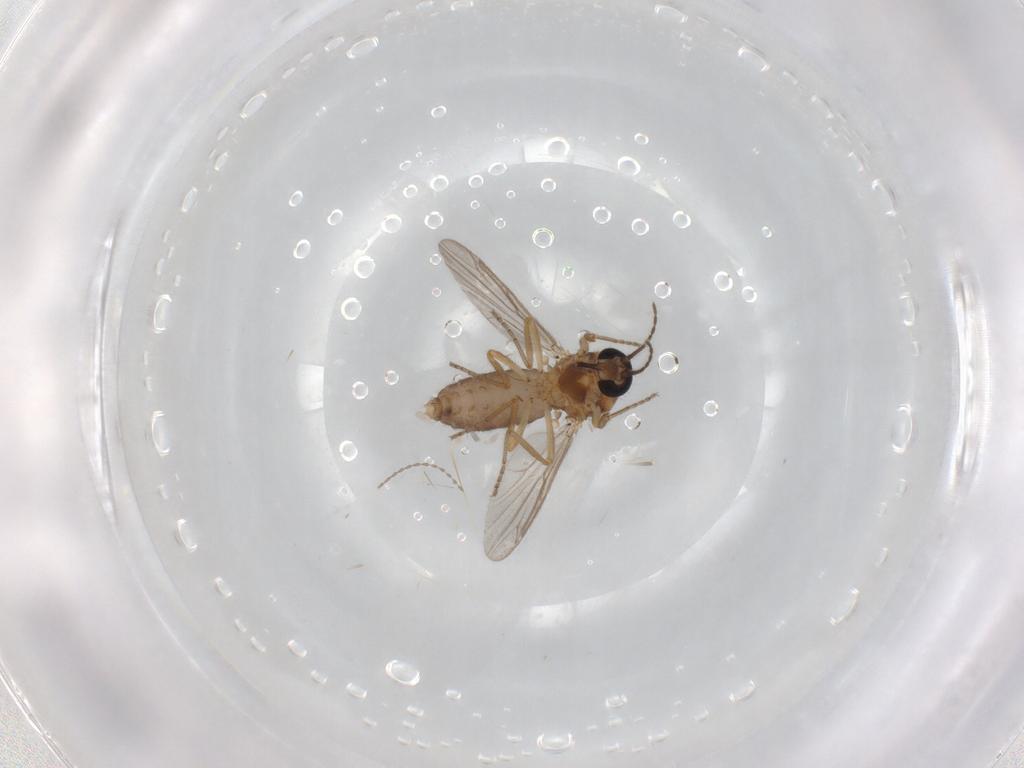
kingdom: Animalia
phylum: Arthropoda
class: Insecta
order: Diptera
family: Ceratopogonidae
